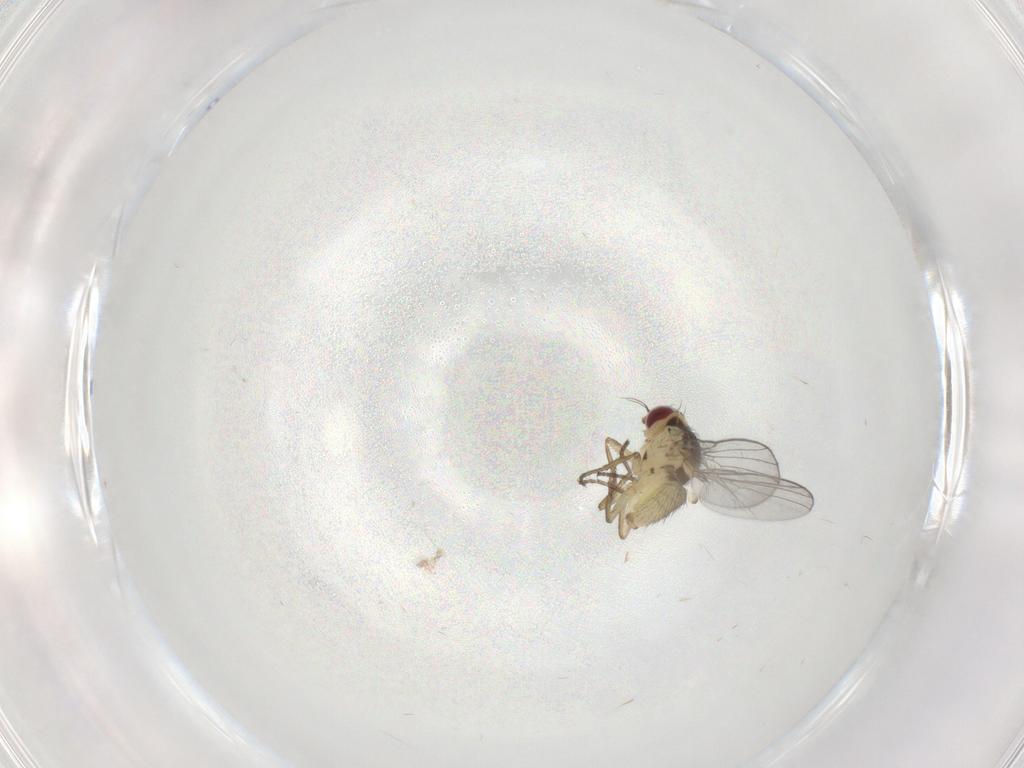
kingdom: Animalia
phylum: Arthropoda
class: Insecta
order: Diptera
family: Agromyzidae
